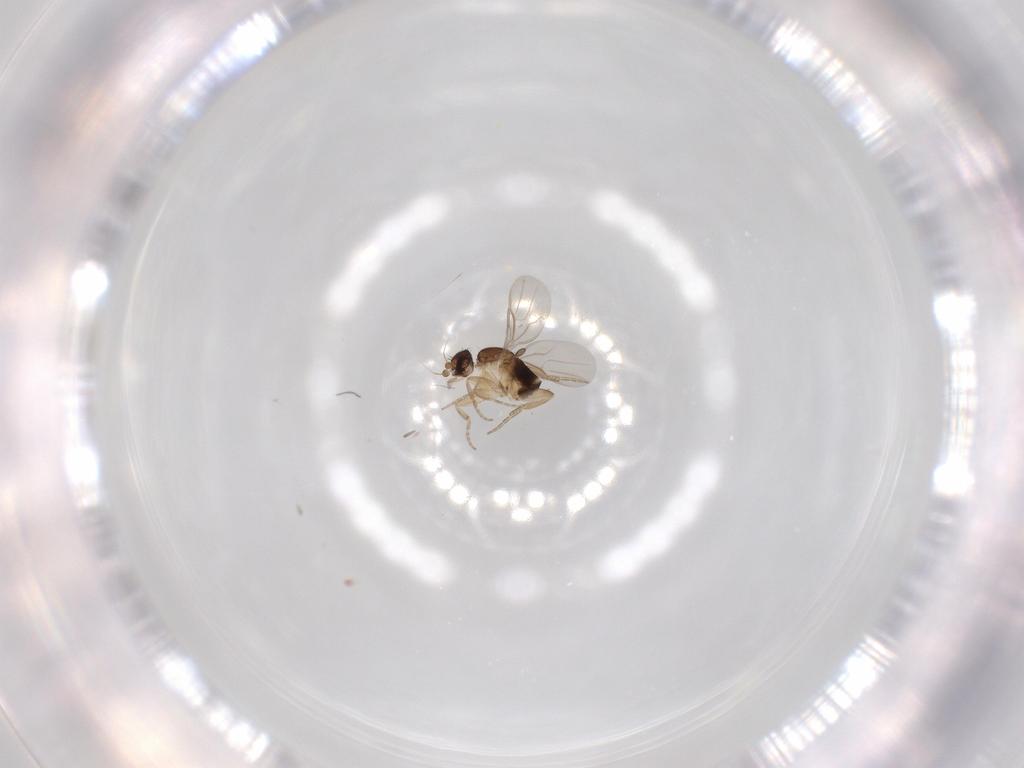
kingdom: Animalia
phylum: Arthropoda
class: Insecta
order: Diptera
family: Phoridae
